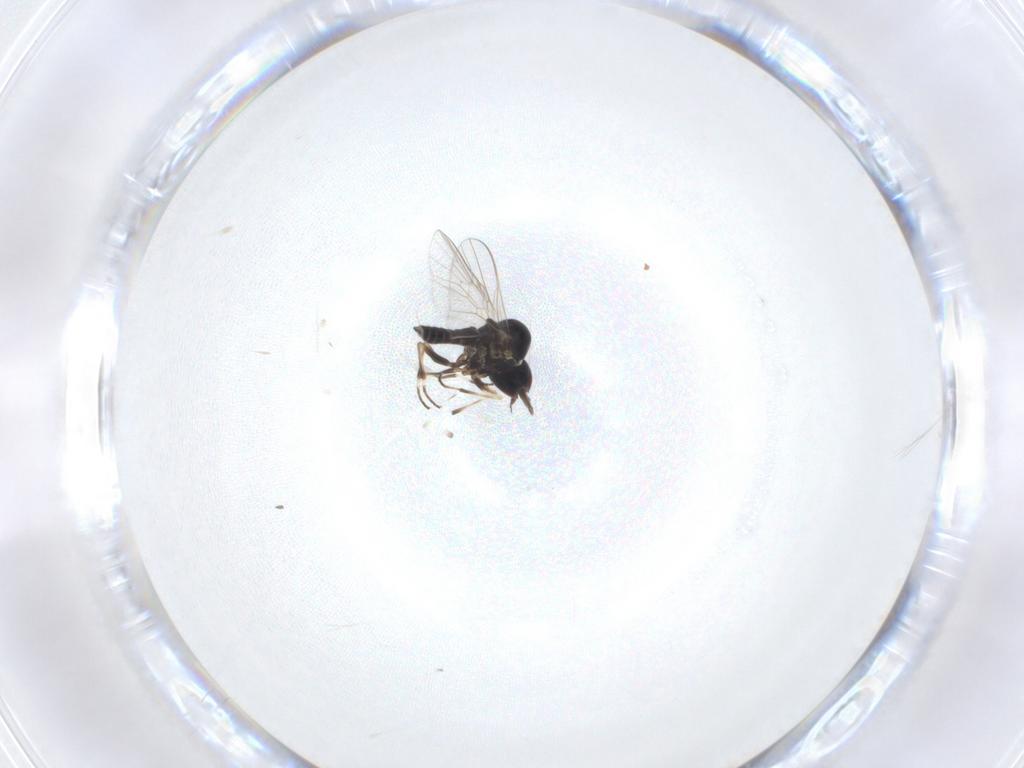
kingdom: Animalia
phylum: Arthropoda
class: Insecta
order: Diptera
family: Mythicomyiidae
